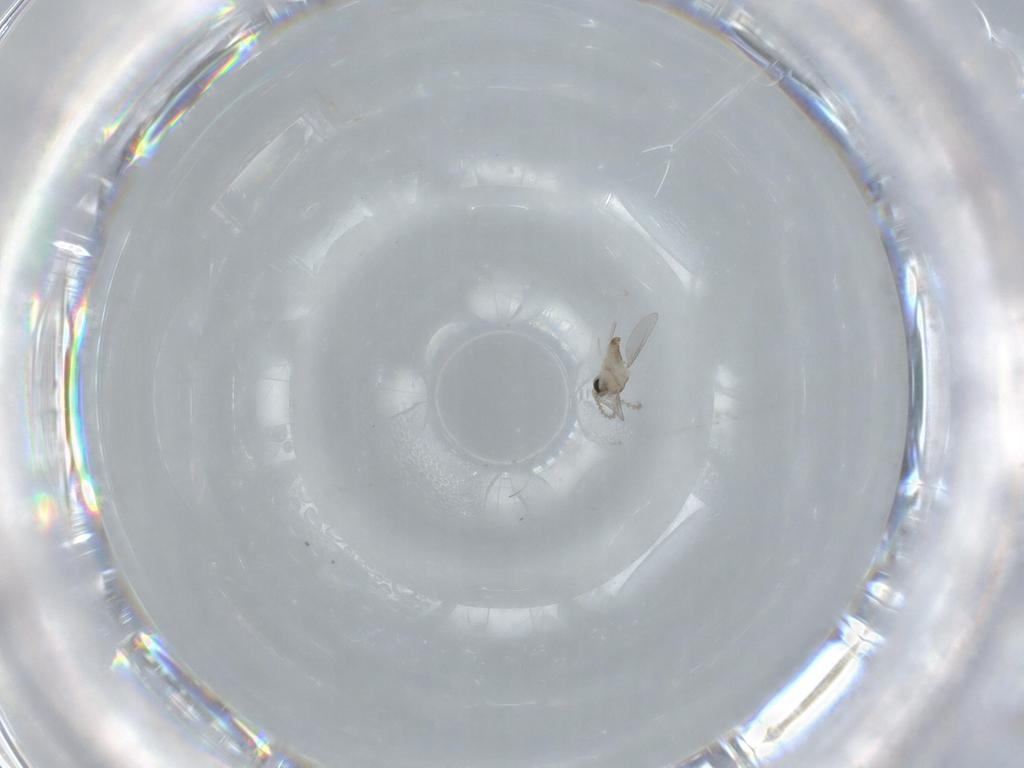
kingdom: Animalia
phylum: Arthropoda
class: Insecta
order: Diptera
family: Cecidomyiidae
